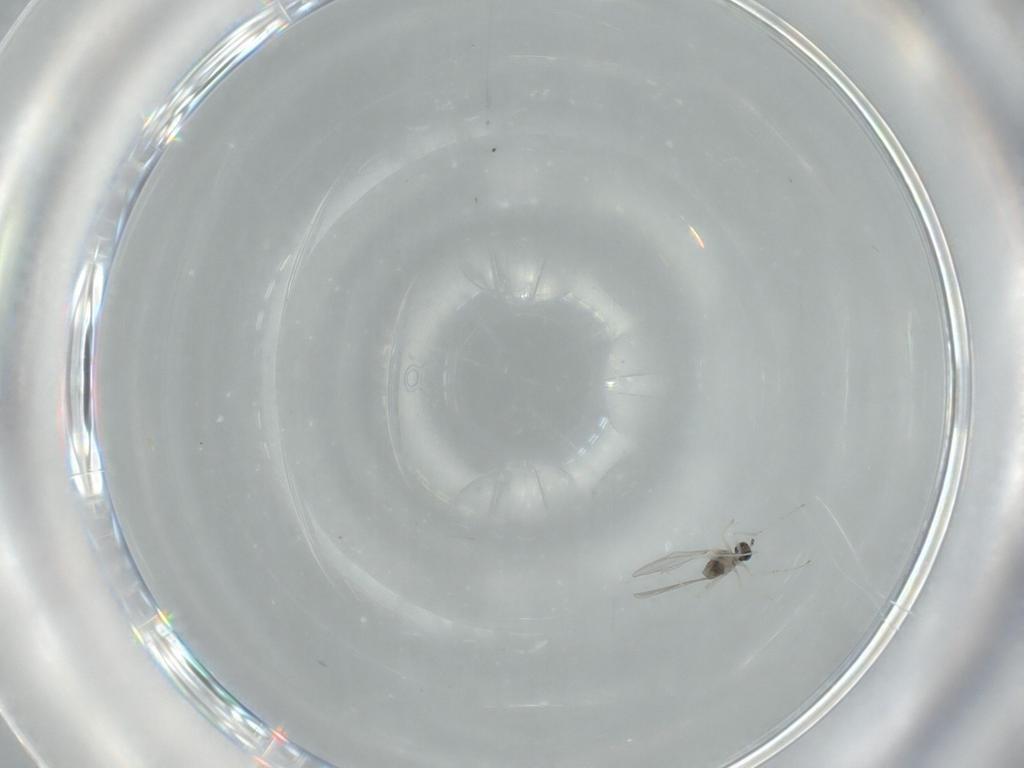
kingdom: Animalia
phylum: Arthropoda
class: Insecta
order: Diptera
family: Cecidomyiidae
